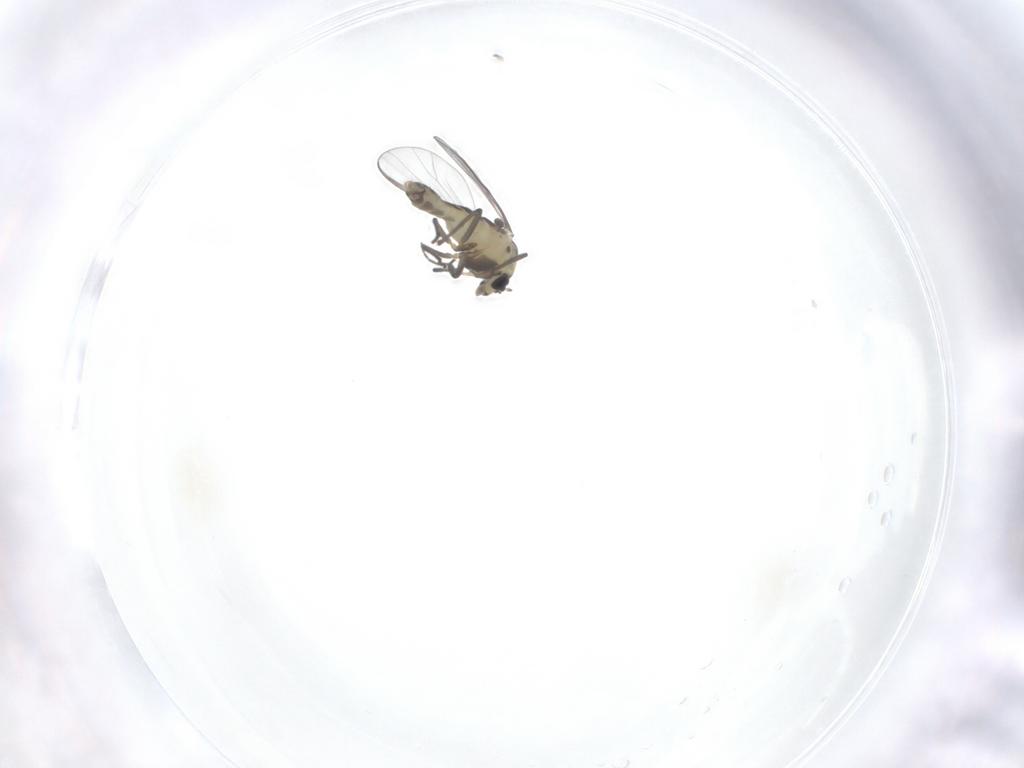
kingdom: Animalia
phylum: Arthropoda
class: Insecta
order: Diptera
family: Chironomidae
